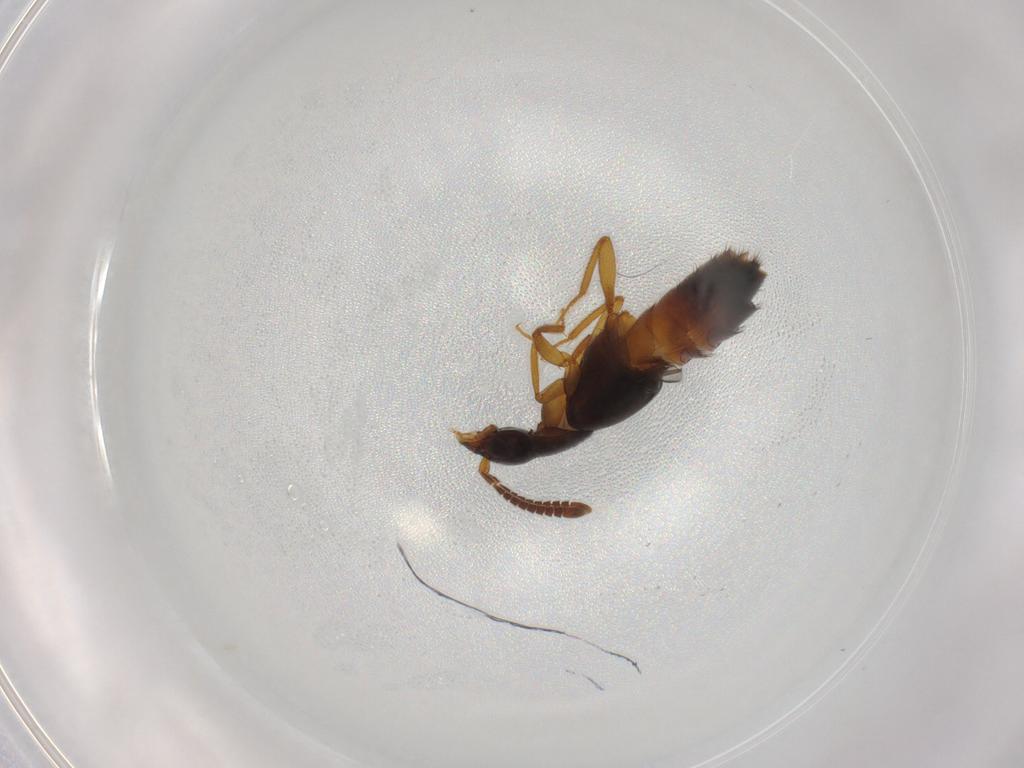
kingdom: Animalia
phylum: Arthropoda
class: Insecta
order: Coleoptera
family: Staphylinidae
